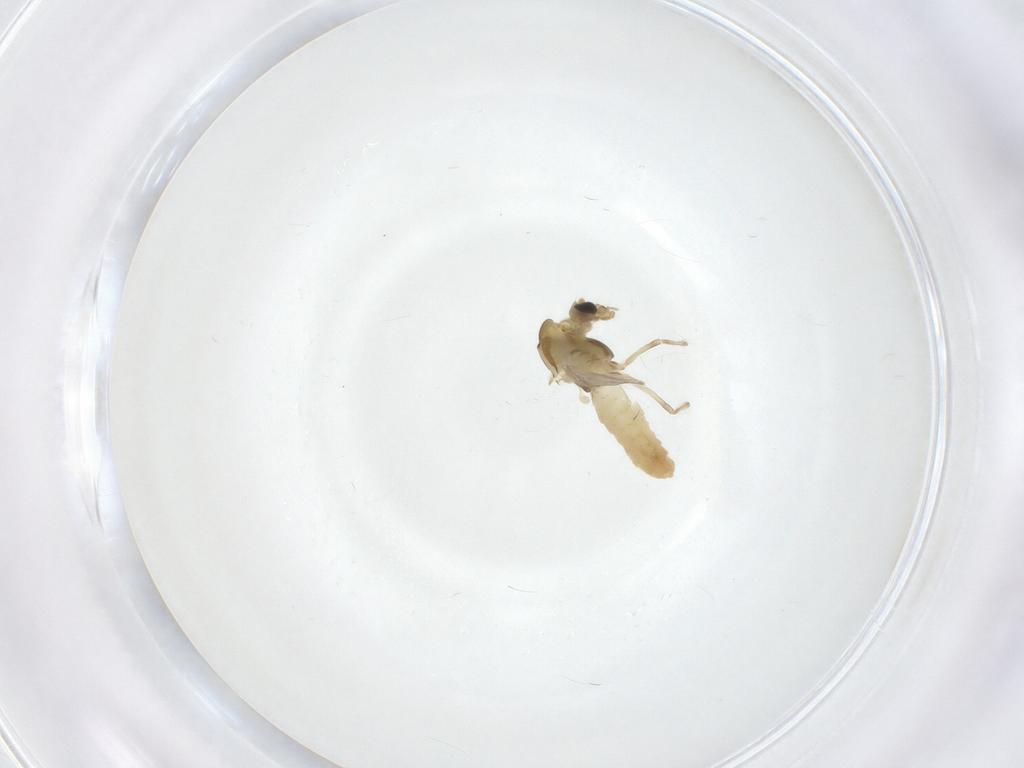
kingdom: Animalia
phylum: Arthropoda
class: Insecta
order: Diptera
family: Chironomidae
